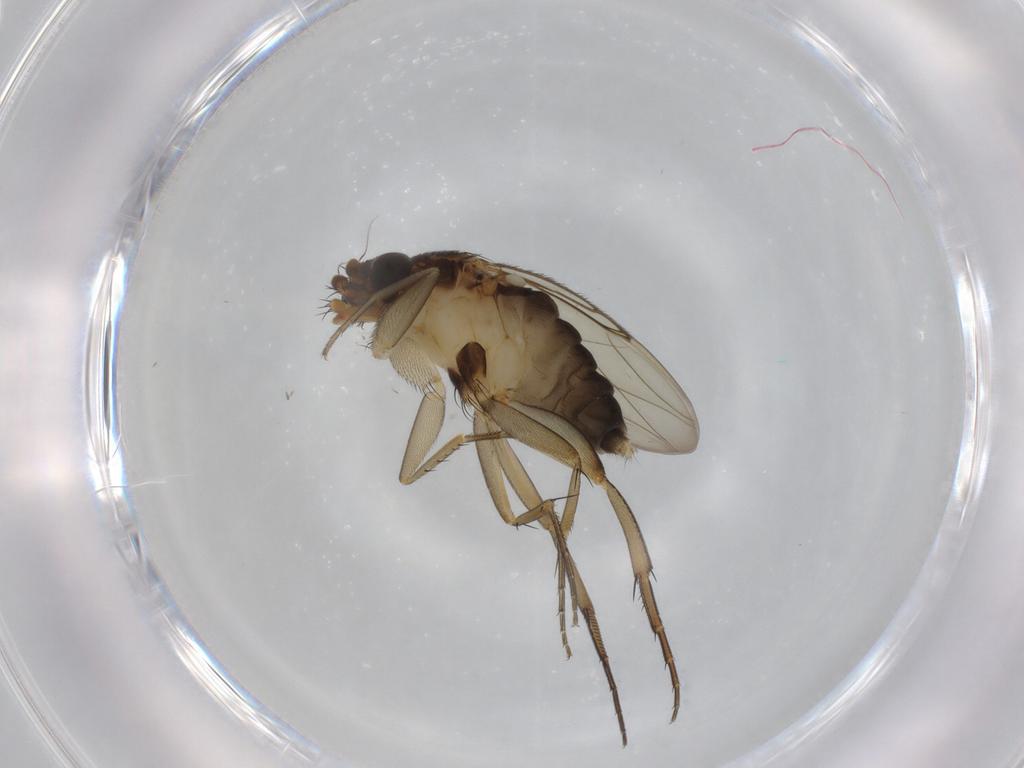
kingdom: Animalia
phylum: Arthropoda
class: Insecta
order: Diptera
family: Phoridae
